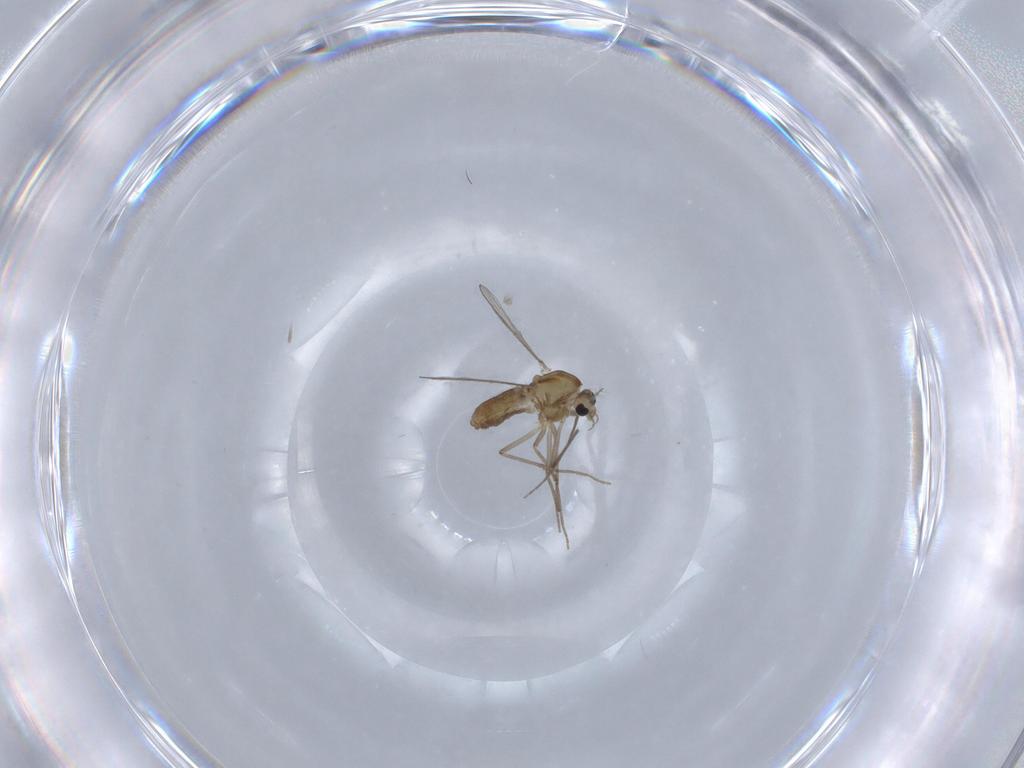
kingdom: Animalia
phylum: Arthropoda
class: Insecta
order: Diptera
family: Chironomidae
